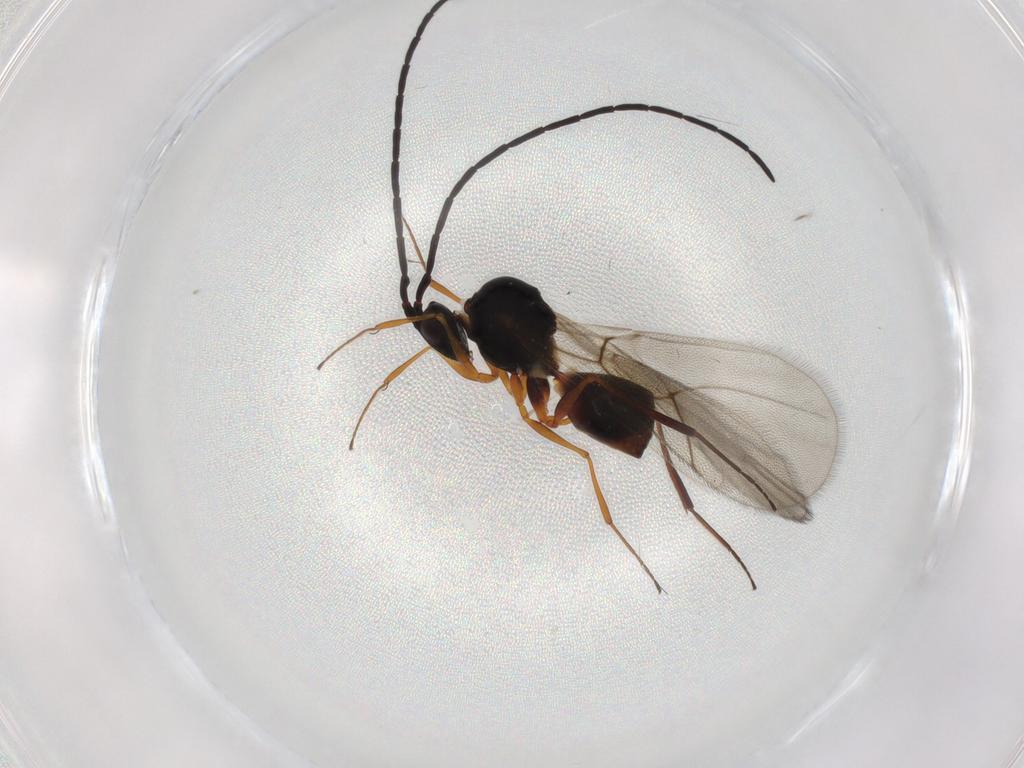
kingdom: Animalia
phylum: Arthropoda
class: Insecta
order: Hymenoptera
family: Figitidae
